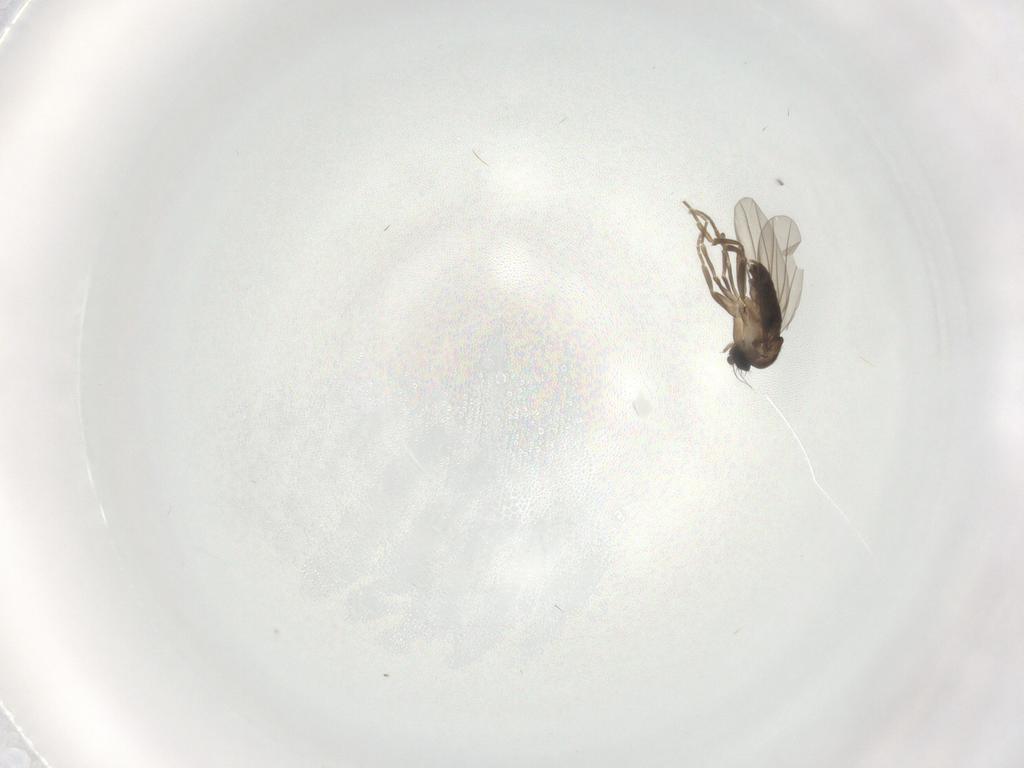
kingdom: Animalia
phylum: Arthropoda
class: Insecta
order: Diptera
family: Phoridae
